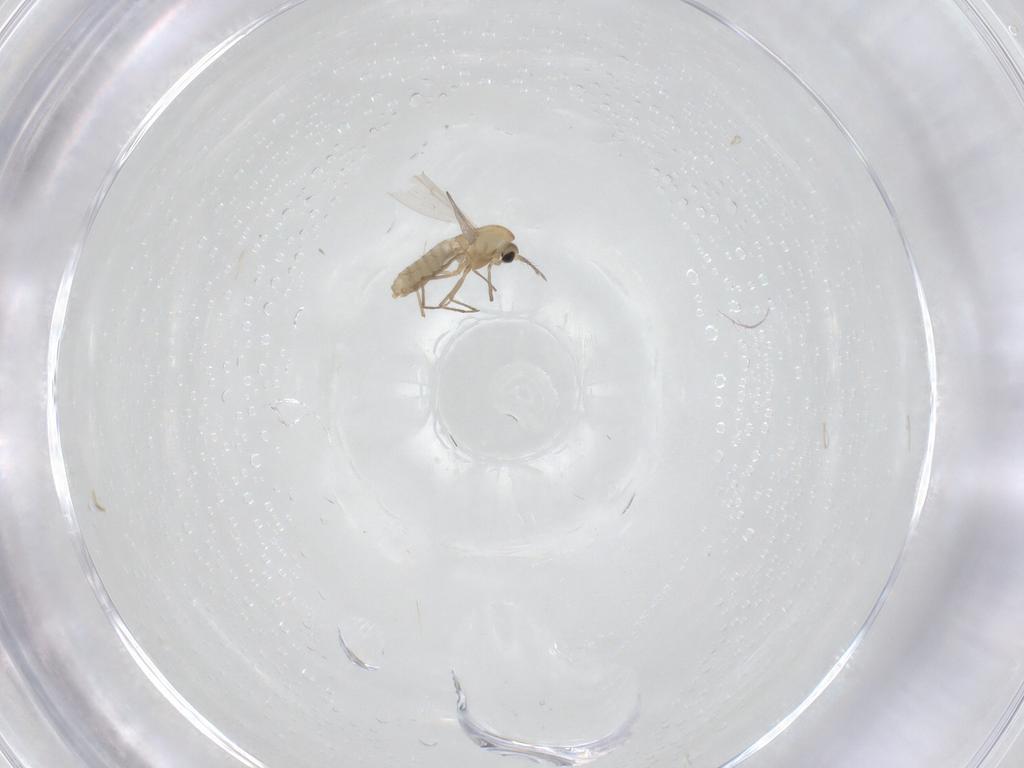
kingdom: Animalia
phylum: Arthropoda
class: Insecta
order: Diptera
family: Chironomidae
